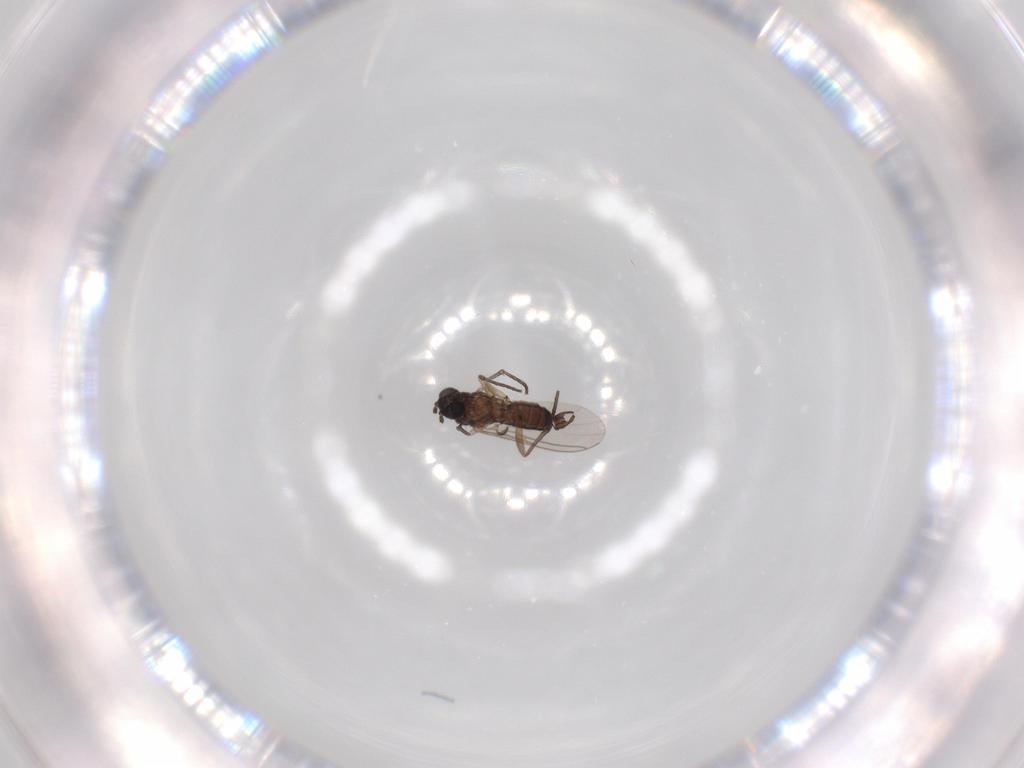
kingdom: Animalia
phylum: Arthropoda
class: Insecta
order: Diptera
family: Sciaridae
